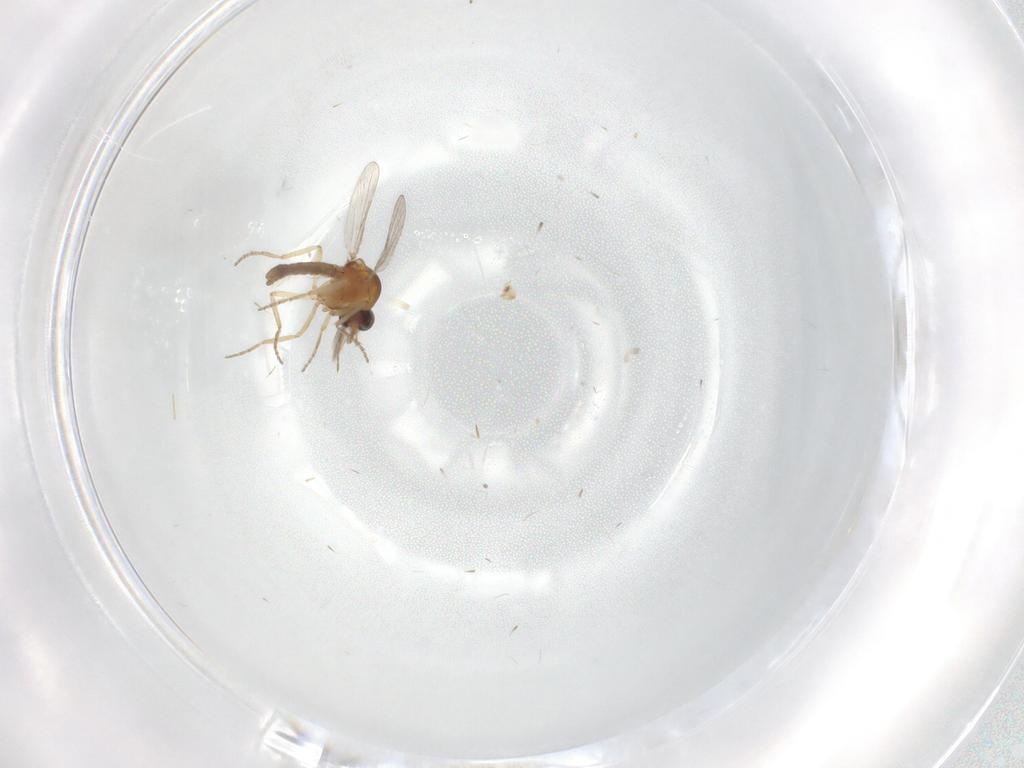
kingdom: Animalia
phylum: Arthropoda
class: Insecta
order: Diptera
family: Chironomidae
